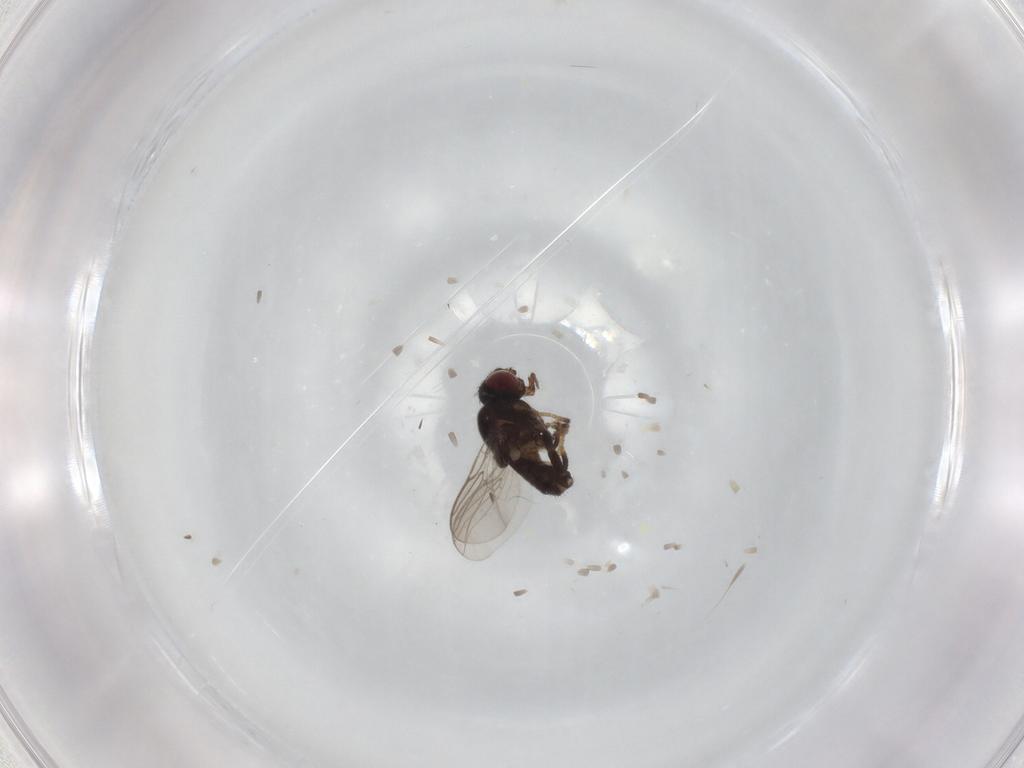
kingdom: Animalia
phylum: Arthropoda
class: Insecta
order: Diptera
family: Chloropidae
